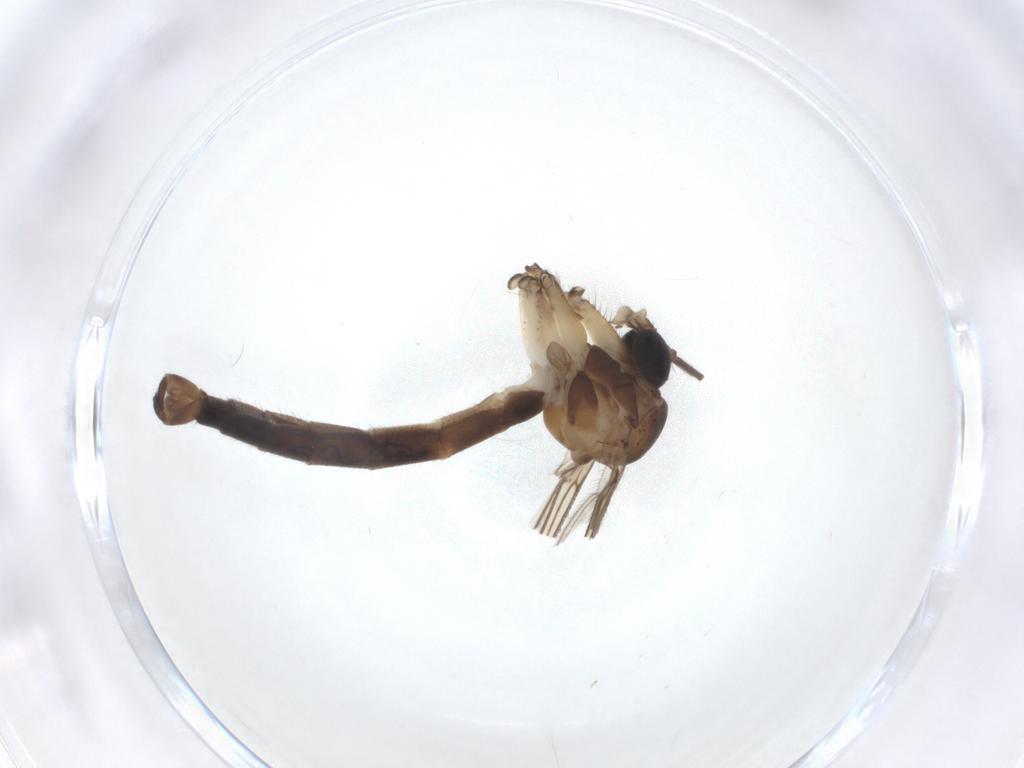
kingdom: Animalia
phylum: Arthropoda
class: Insecta
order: Diptera
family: Chironomidae
